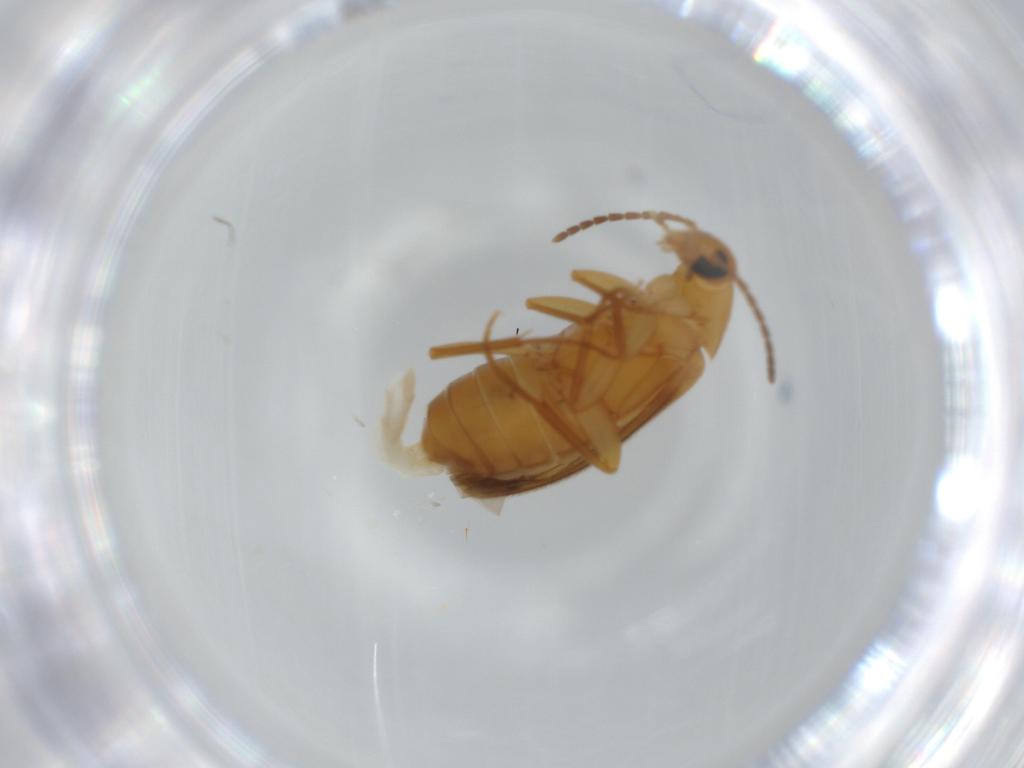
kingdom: Animalia
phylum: Arthropoda
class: Insecta
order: Coleoptera
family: Scraptiidae
